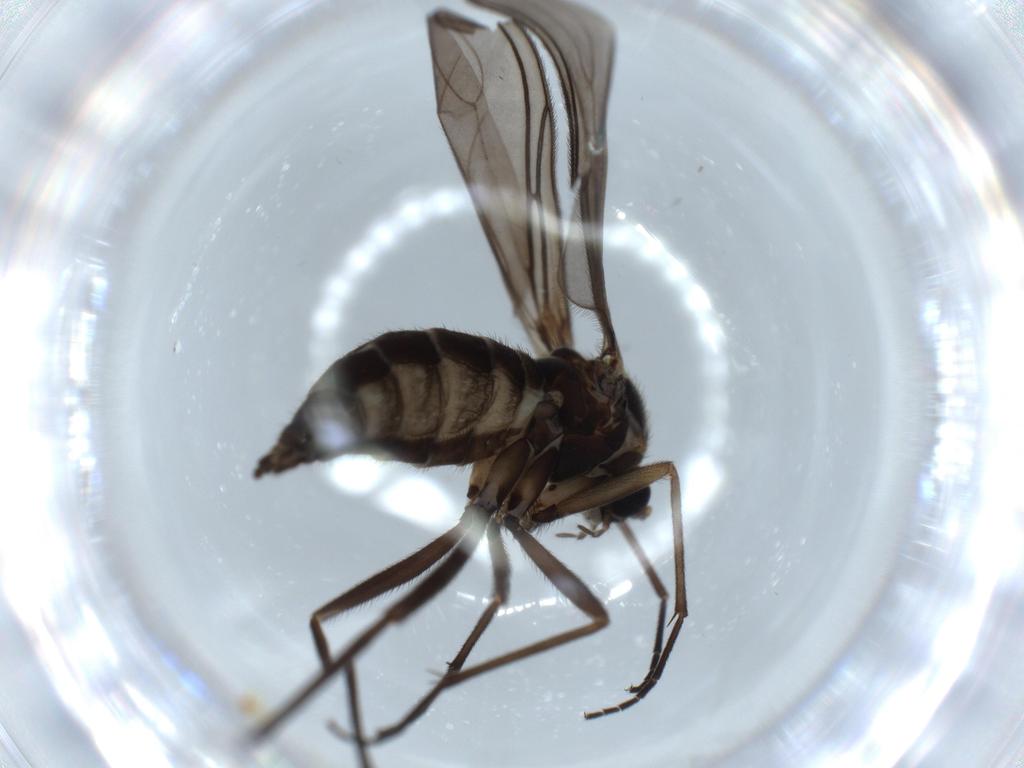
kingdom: Animalia
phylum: Arthropoda
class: Insecta
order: Diptera
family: Sciaridae
